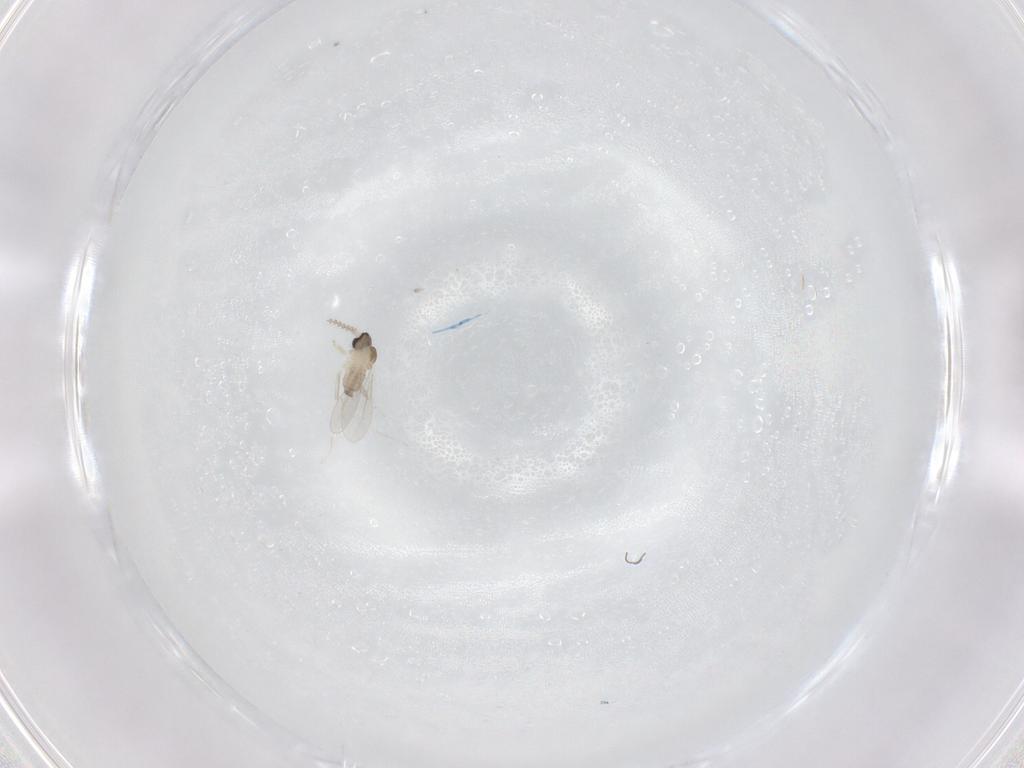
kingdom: Animalia
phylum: Arthropoda
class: Insecta
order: Diptera
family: Cecidomyiidae
